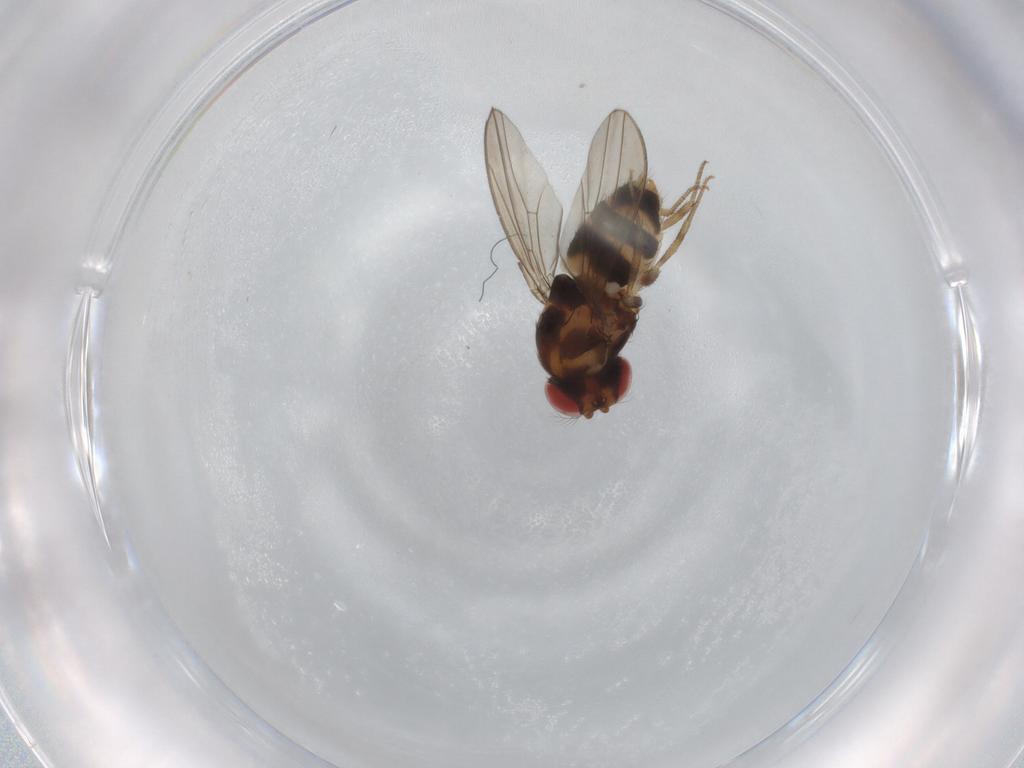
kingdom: Animalia
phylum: Arthropoda
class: Insecta
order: Diptera
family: Drosophilidae
